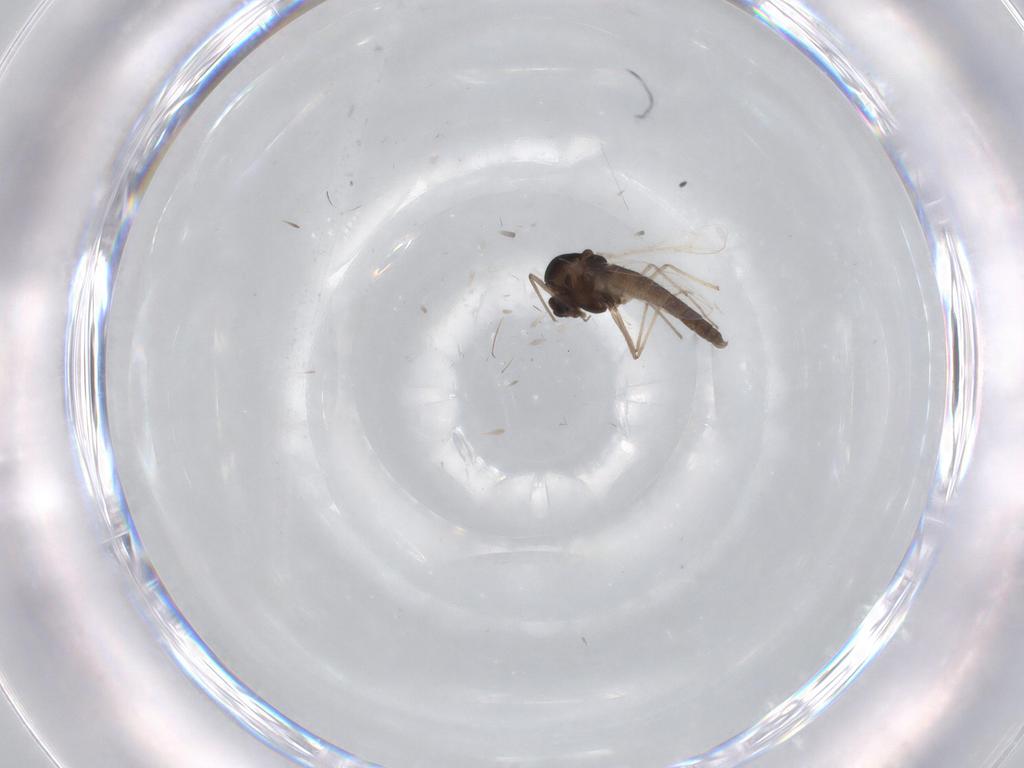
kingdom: Animalia
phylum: Arthropoda
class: Insecta
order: Diptera
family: Chironomidae
